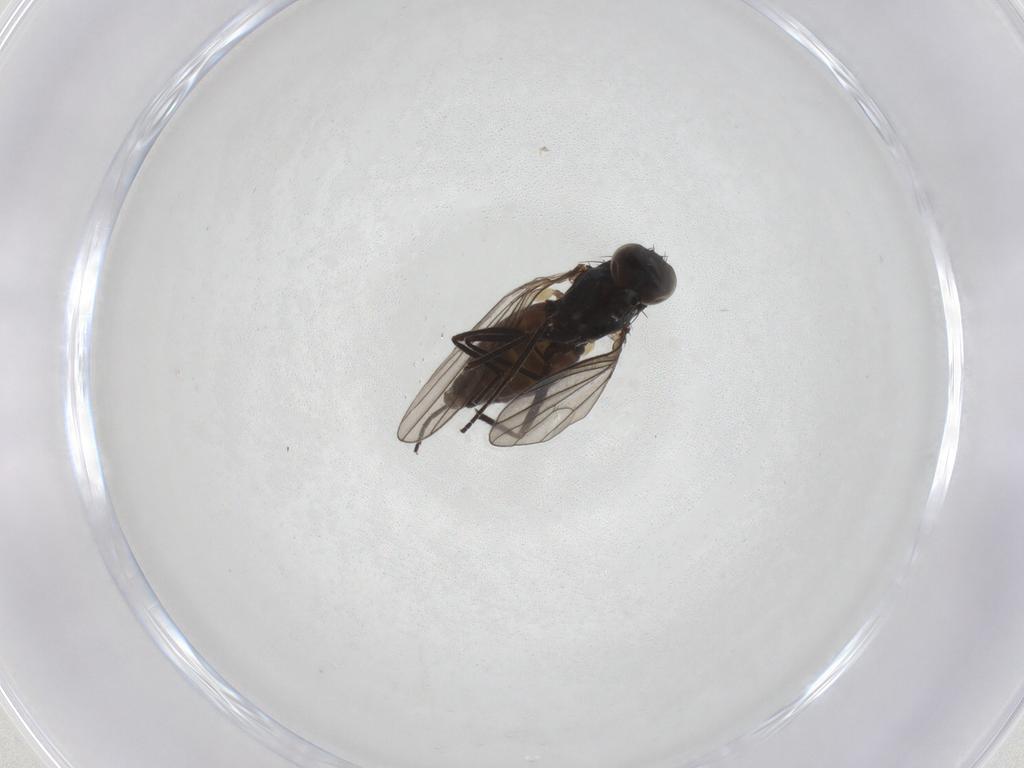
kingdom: Animalia
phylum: Arthropoda
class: Insecta
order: Diptera
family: Dolichopodidae
